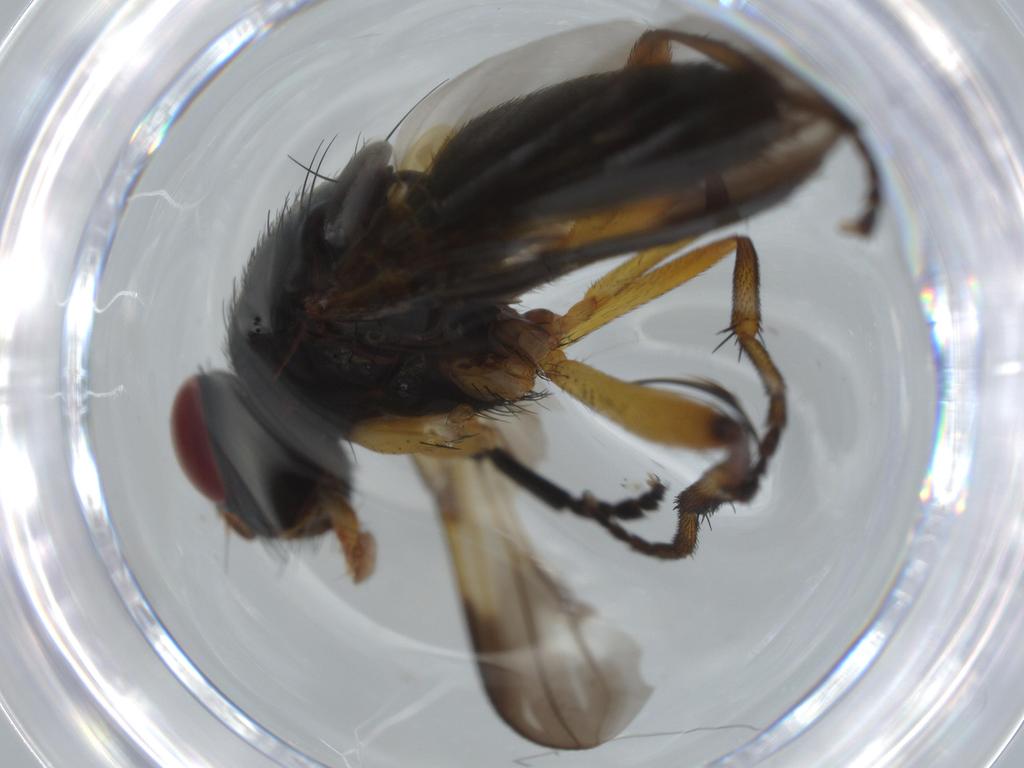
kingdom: Animalia
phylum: Arthropoda
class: Insecta
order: Diptera
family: Calliphoridae
